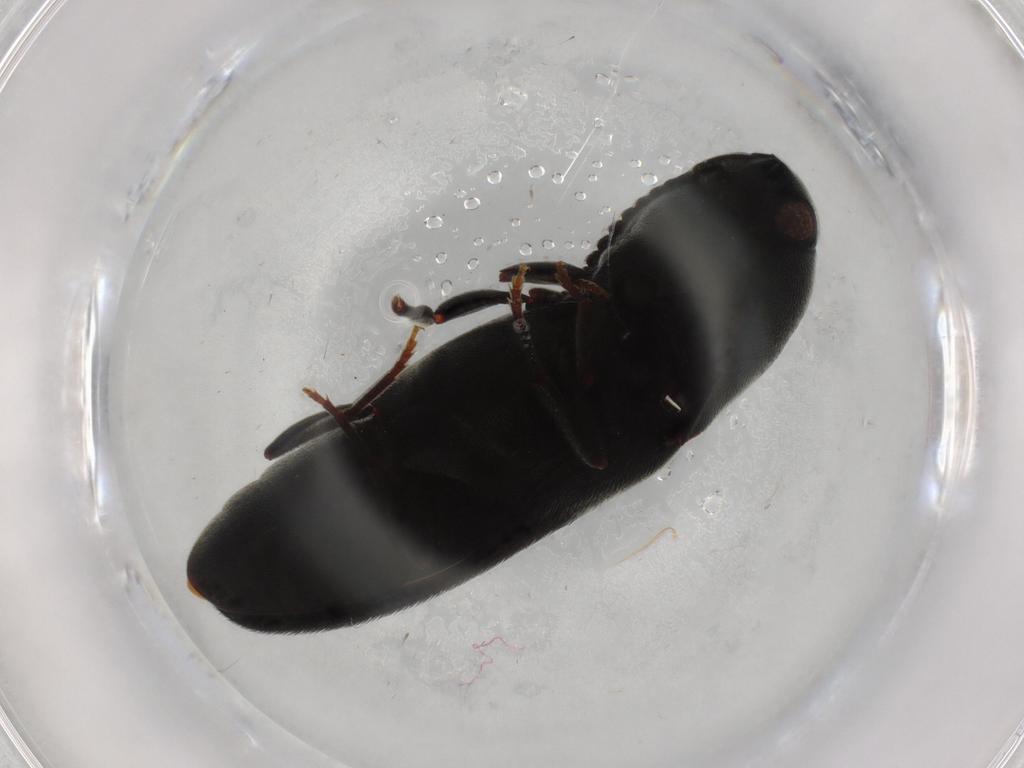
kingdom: Animalia
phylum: Arthropoda
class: Insecta
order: Coleoptera
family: Eucnemidae
